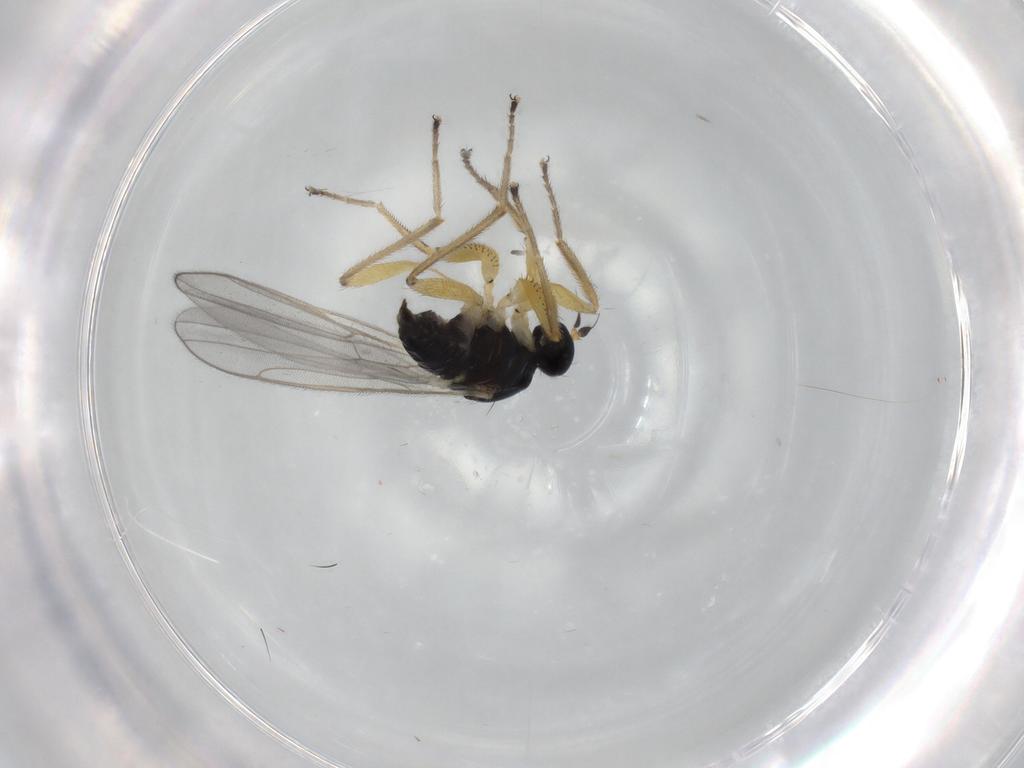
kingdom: Animalia
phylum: Arthropoda
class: Insecta
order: Diptera
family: Hybotidae
